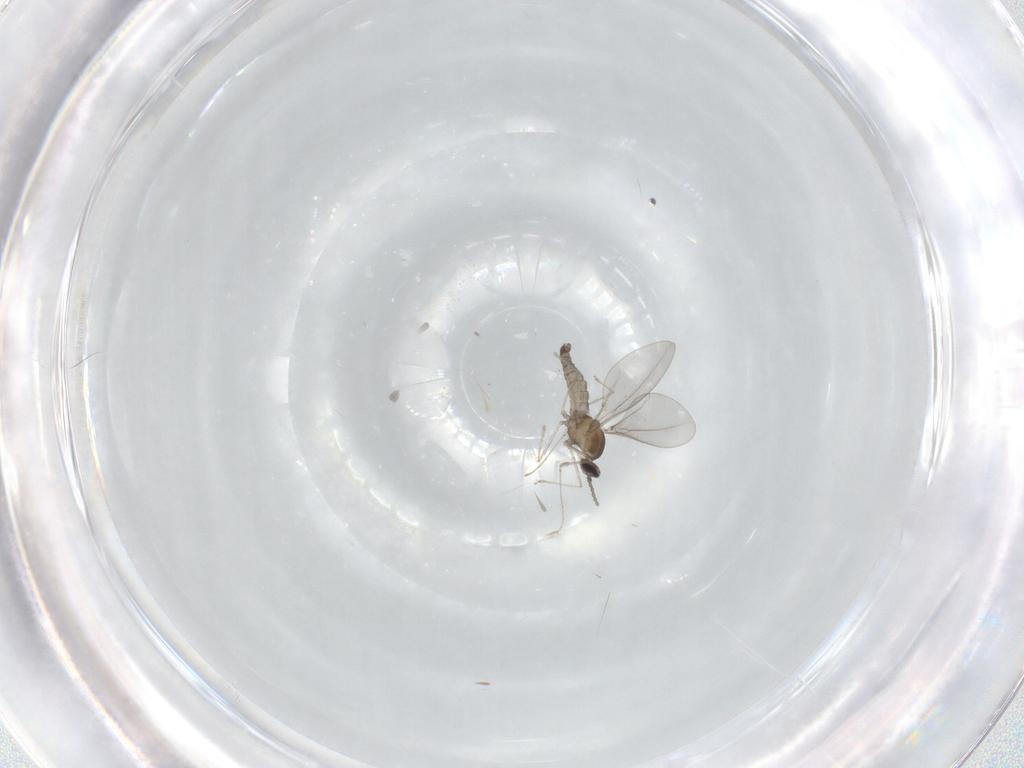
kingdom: Animalia
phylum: Arthropoda
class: Insecta
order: Diptera
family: Cecidomyiidae
